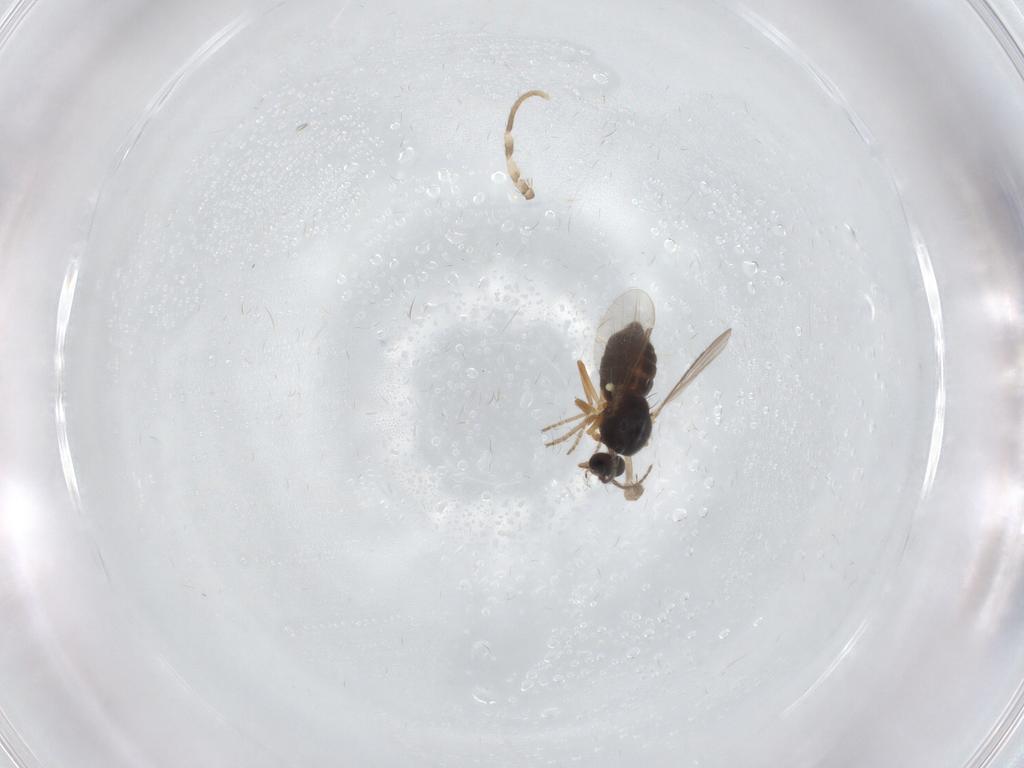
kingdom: Animalia
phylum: Arthropoda
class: Insecta
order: Diptera
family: Ceratopogonidae
